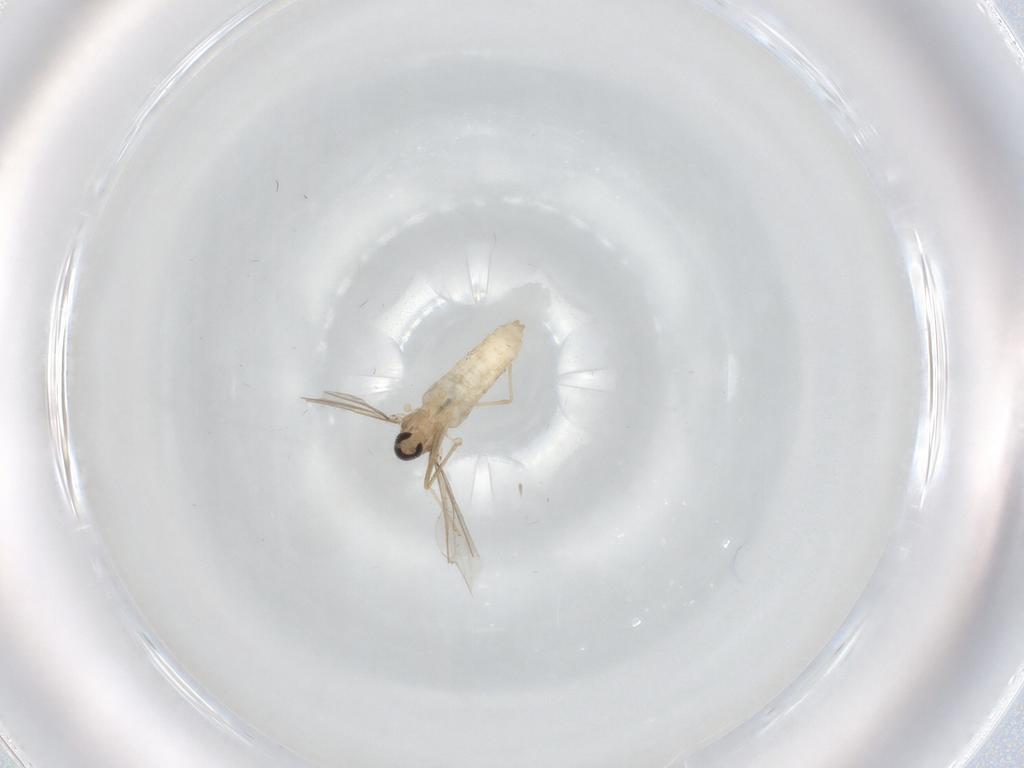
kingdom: Animalia
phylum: Arthropoda
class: Insecta
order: Diptera
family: Cecidomyiidae
